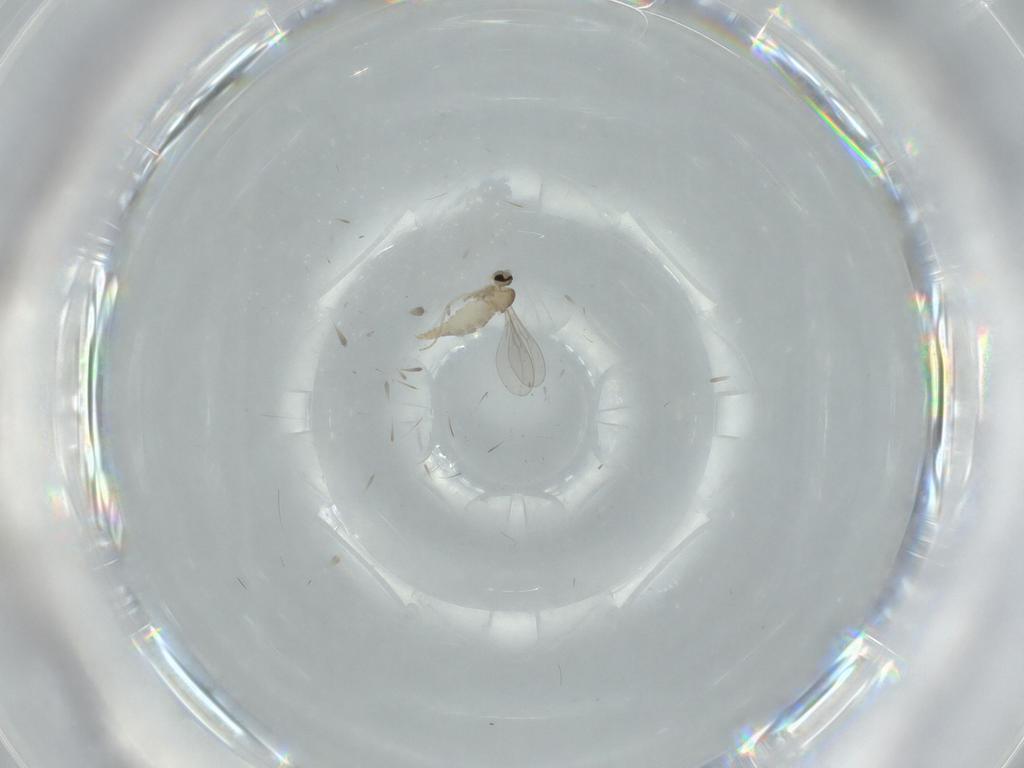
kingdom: Animalia
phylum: Arthropoda
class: Insecta
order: Diptera
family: Cecidomyiidae
